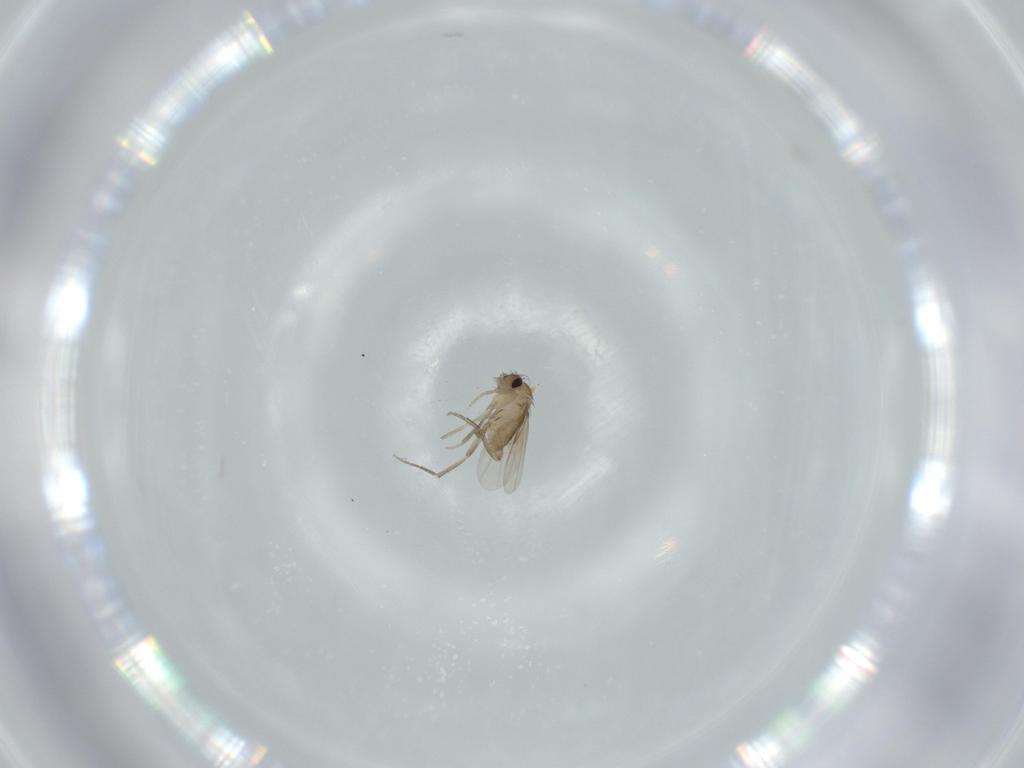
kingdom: Animalia
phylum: Arthropoda
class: Insecta
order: Diptera
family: Phoridae
